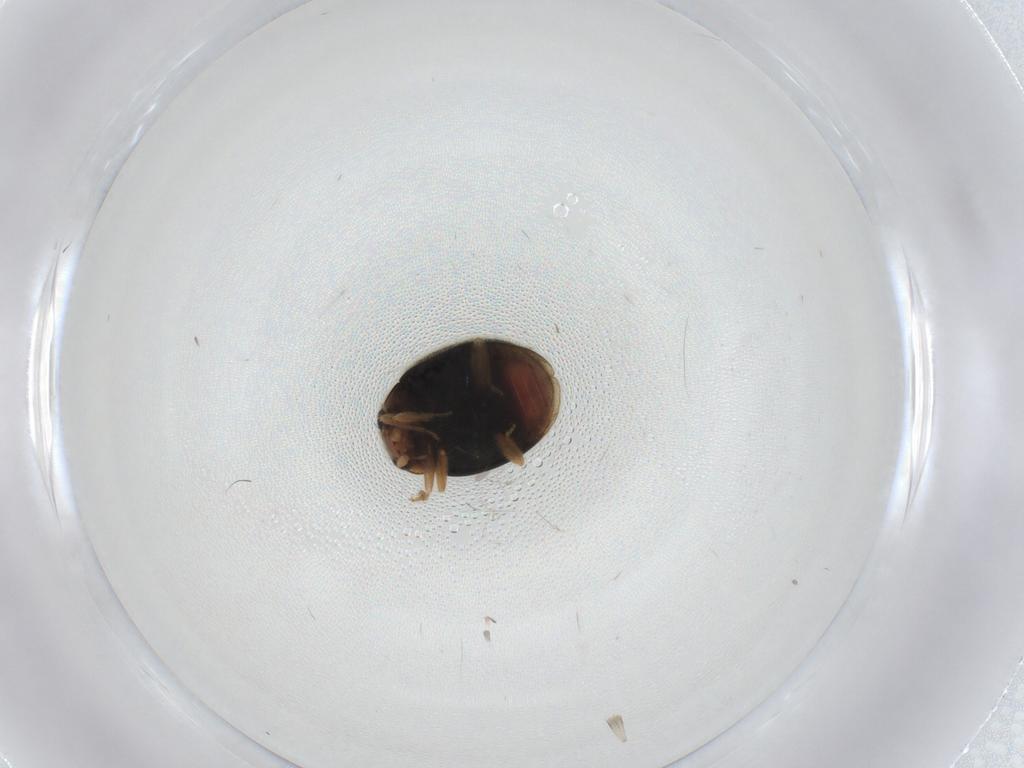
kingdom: Animalia
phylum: Arthropoda
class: Insecta
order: Coleoptera
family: Coccinellidae
